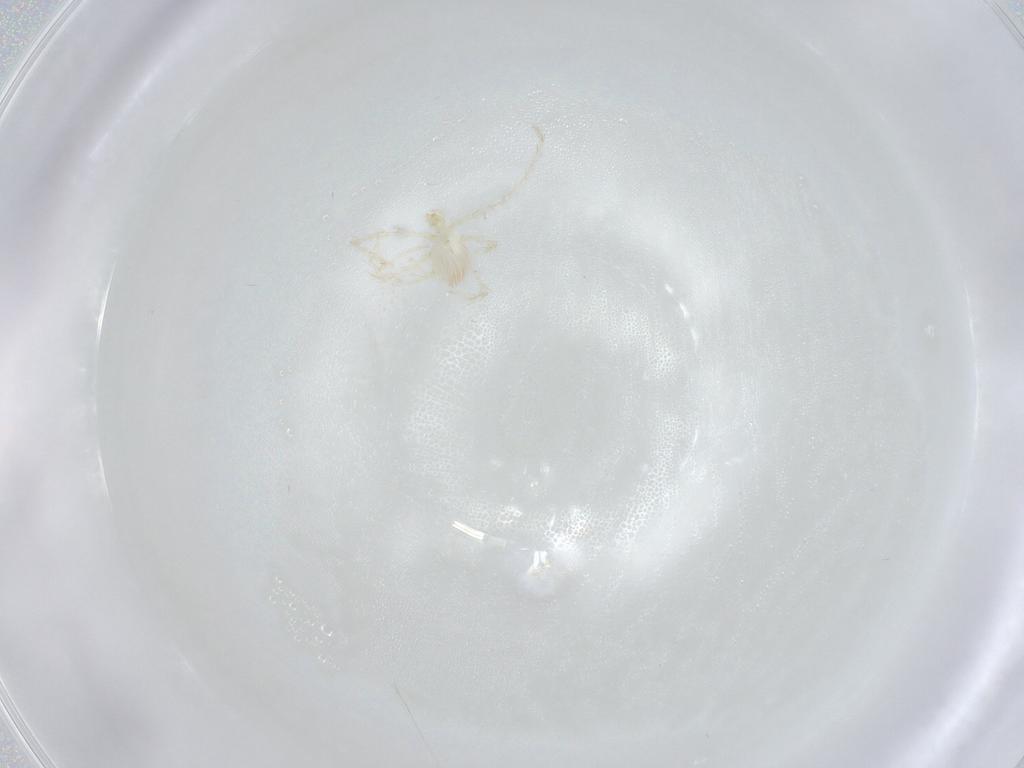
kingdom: Animalia
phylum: Arthropoda
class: Arachnida
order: Trombidiformes
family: Erythraeidae
